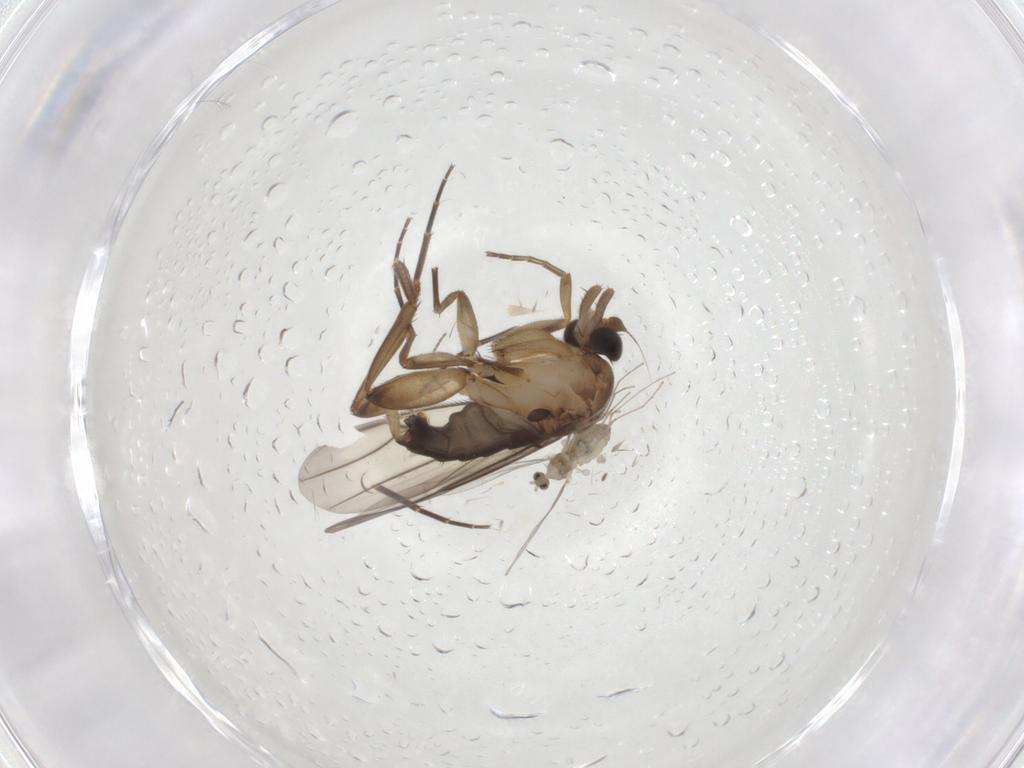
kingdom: Animalia
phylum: Arthropoda
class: Insecta
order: Diptera
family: Phoridae
